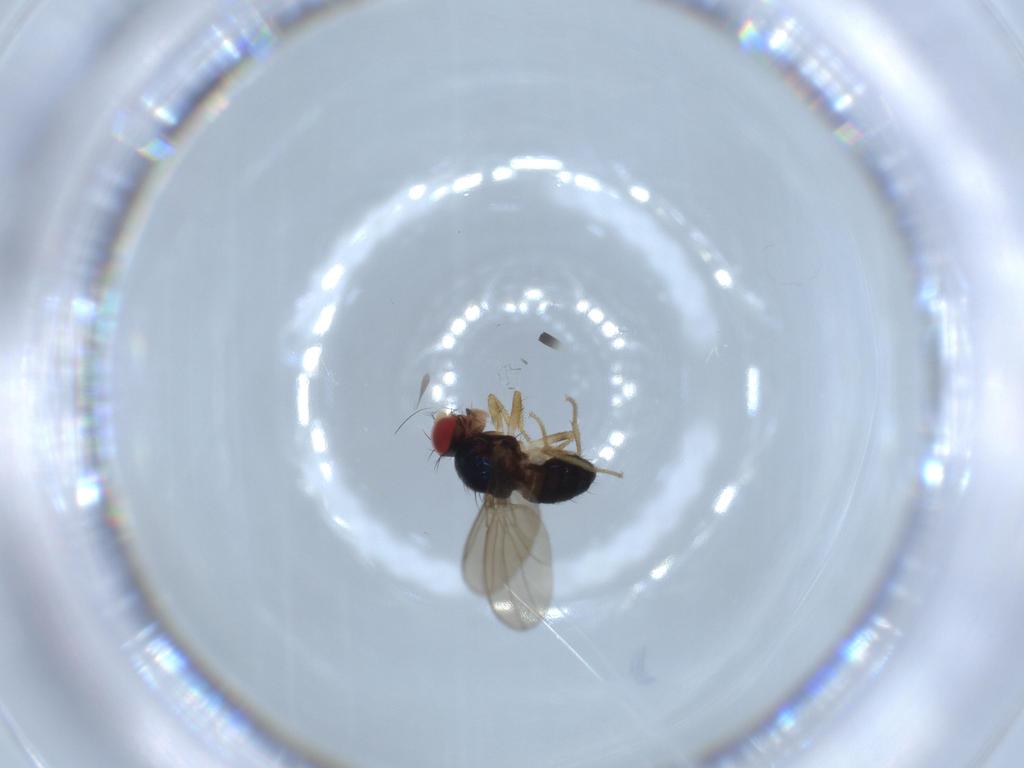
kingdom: Animalia
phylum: Arthropoda
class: Insecta
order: Diptera
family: Drosophilidae
